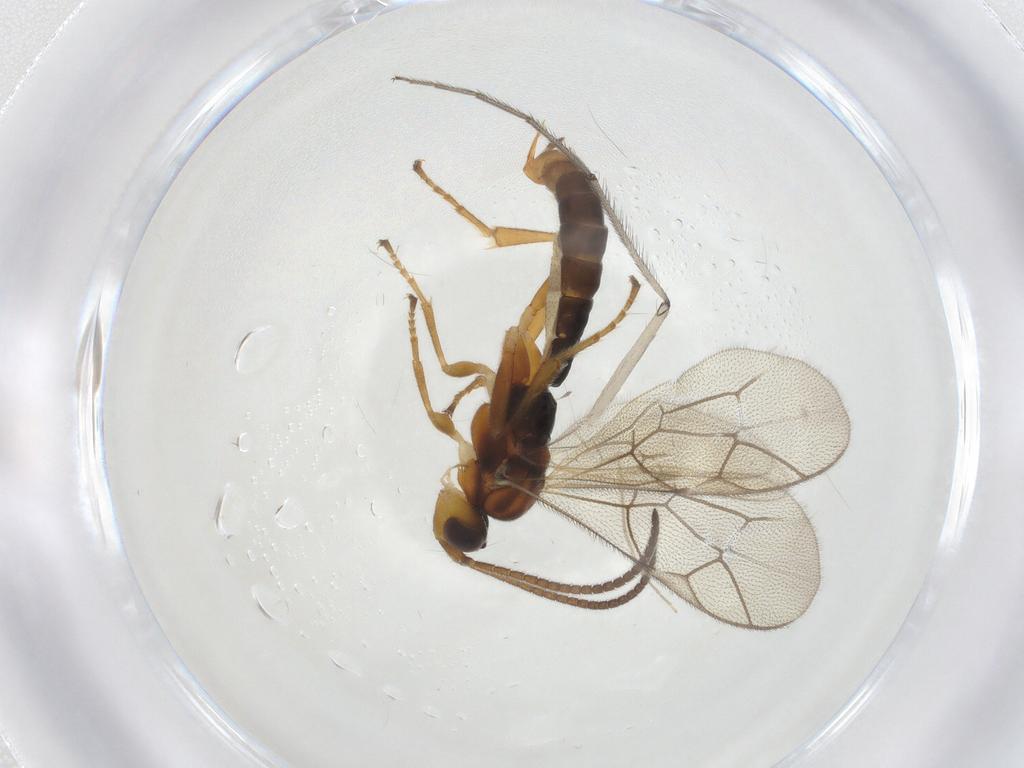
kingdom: Animalia
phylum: Arthropoda
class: Insecta
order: Hymenoptera
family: Ichneumonidae
